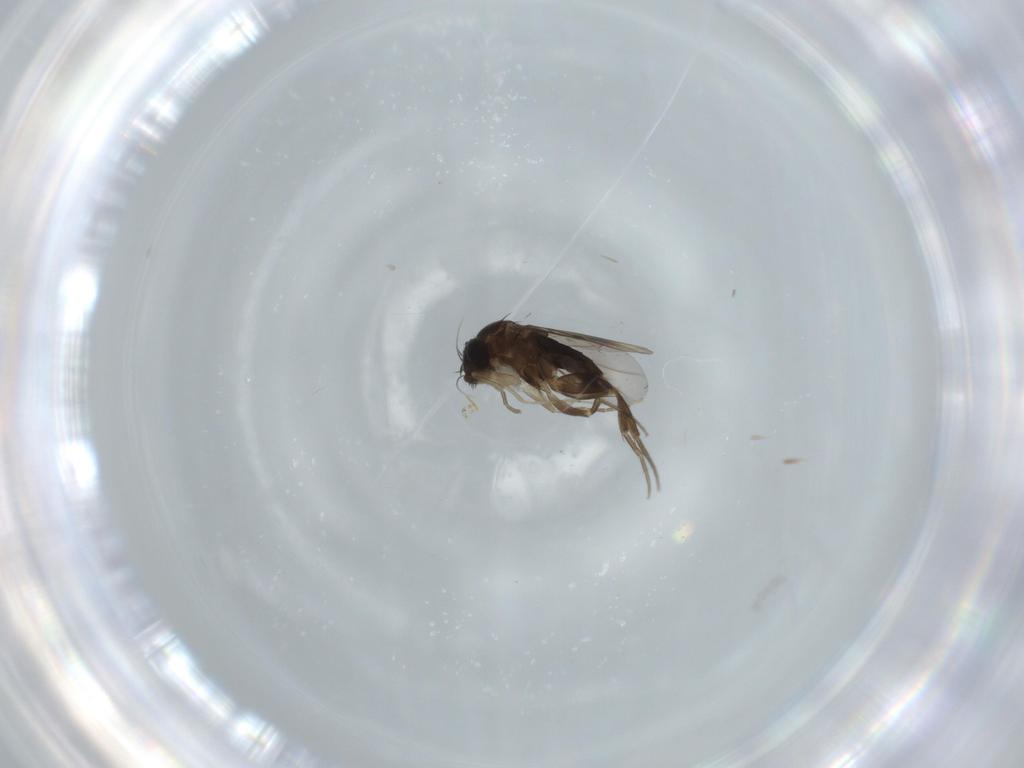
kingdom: Animalia
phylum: Arthropoda
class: Insecta
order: Diptera
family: Phoridae
